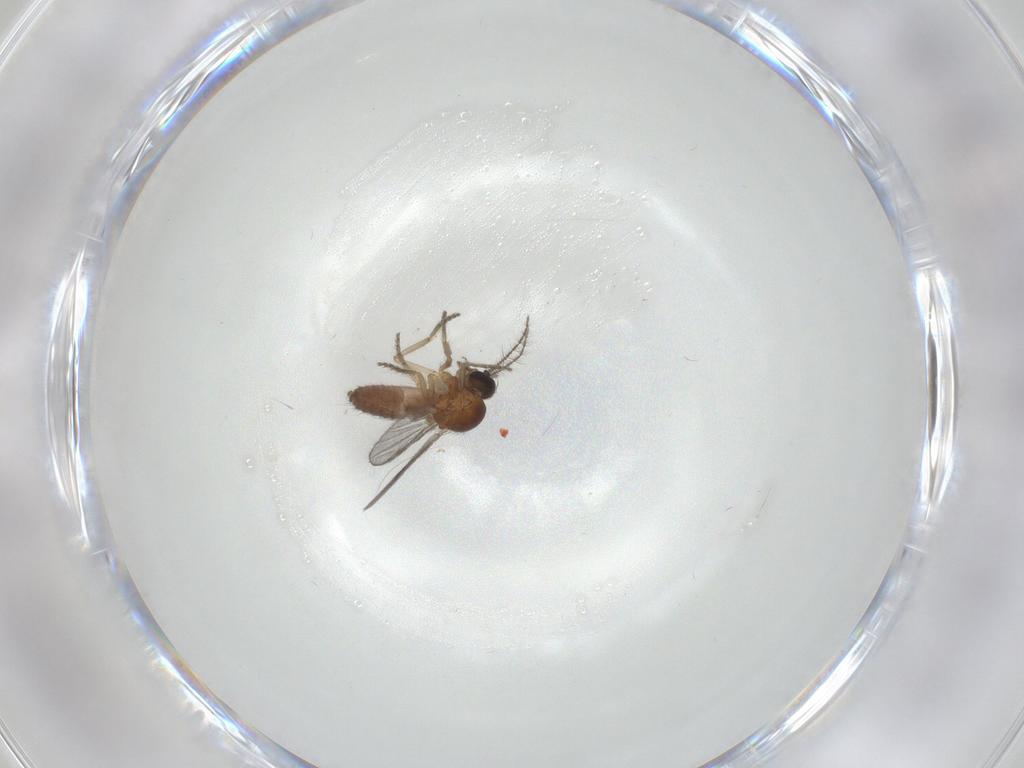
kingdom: Animalia
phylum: Arthropoda
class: Insecta
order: Diptera
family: Ceratopogonidae
